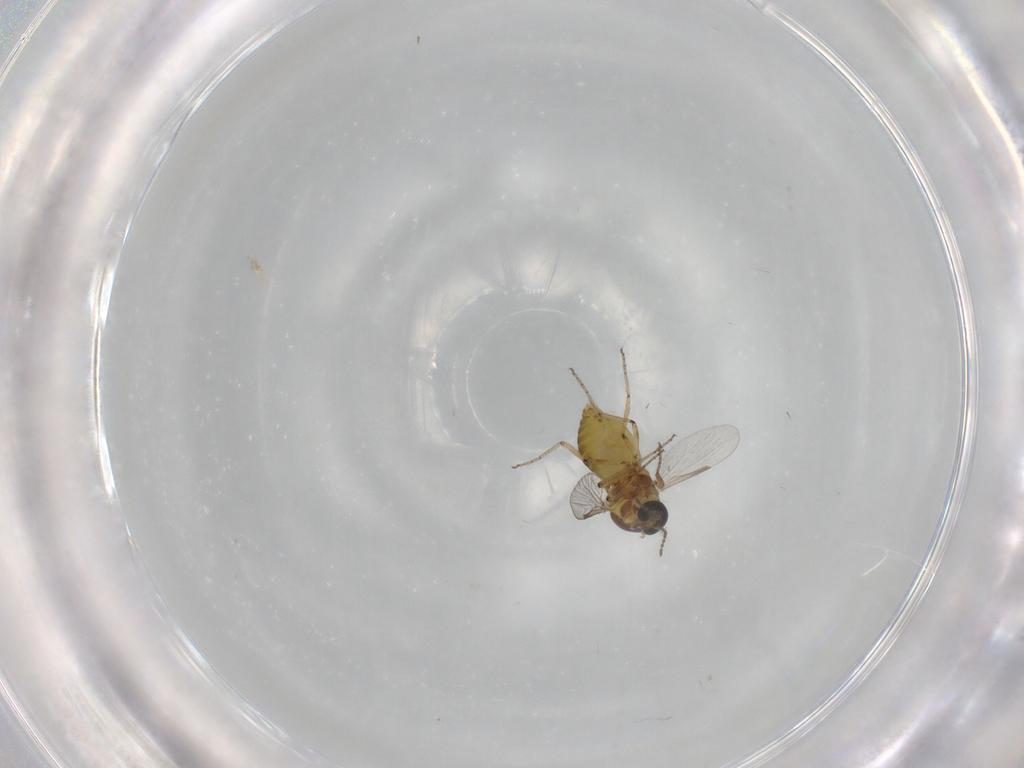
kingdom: Animalia
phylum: Arthropoda
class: Insecta
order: Diptera
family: Ceratopogonidae
